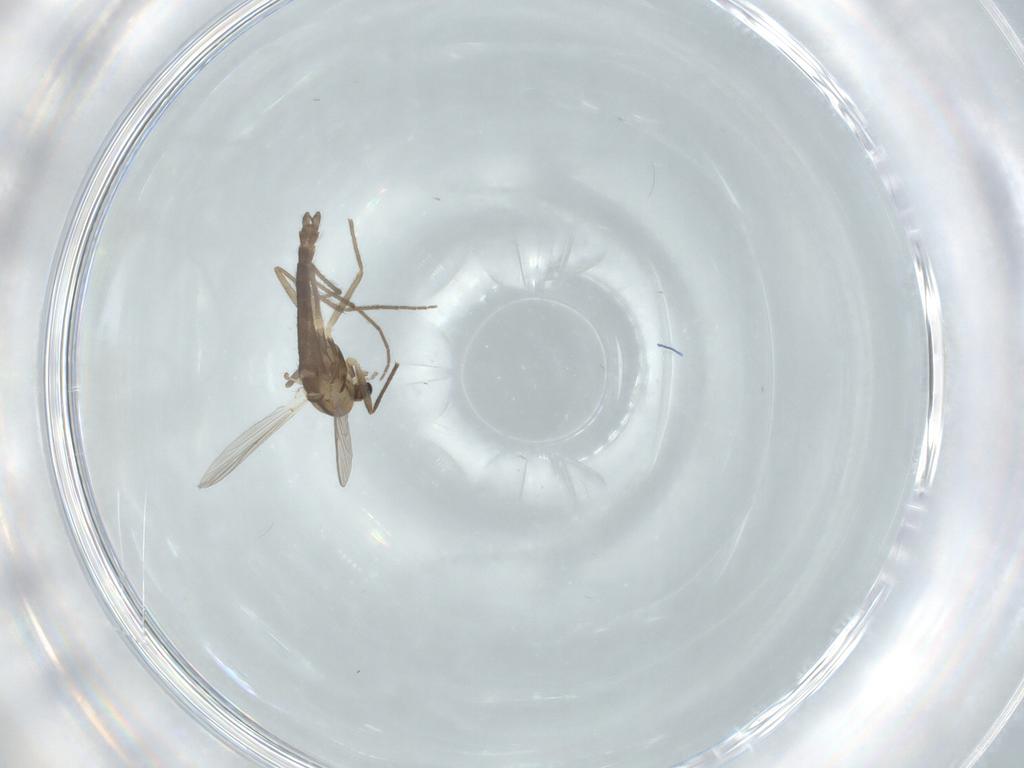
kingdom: Animalia
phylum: Arthropoda
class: Insecta
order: Diptera
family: Chironomidae
